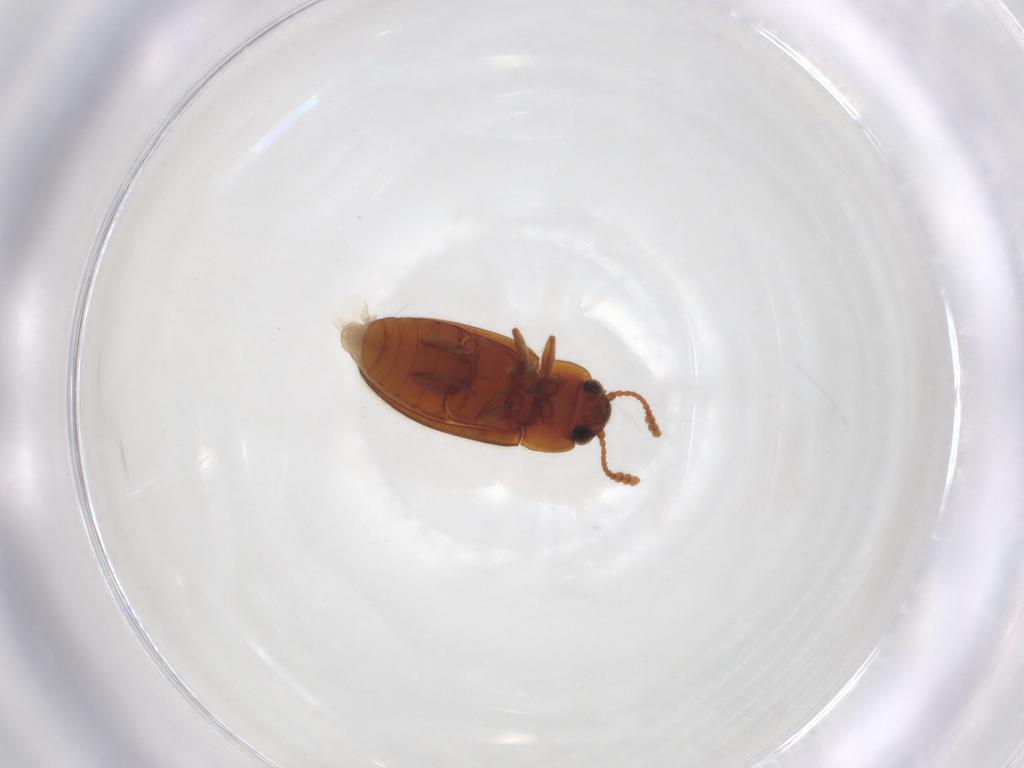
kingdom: Animalia
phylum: Arthropoda
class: Insecta
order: Coleoptera
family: Erotylidae
